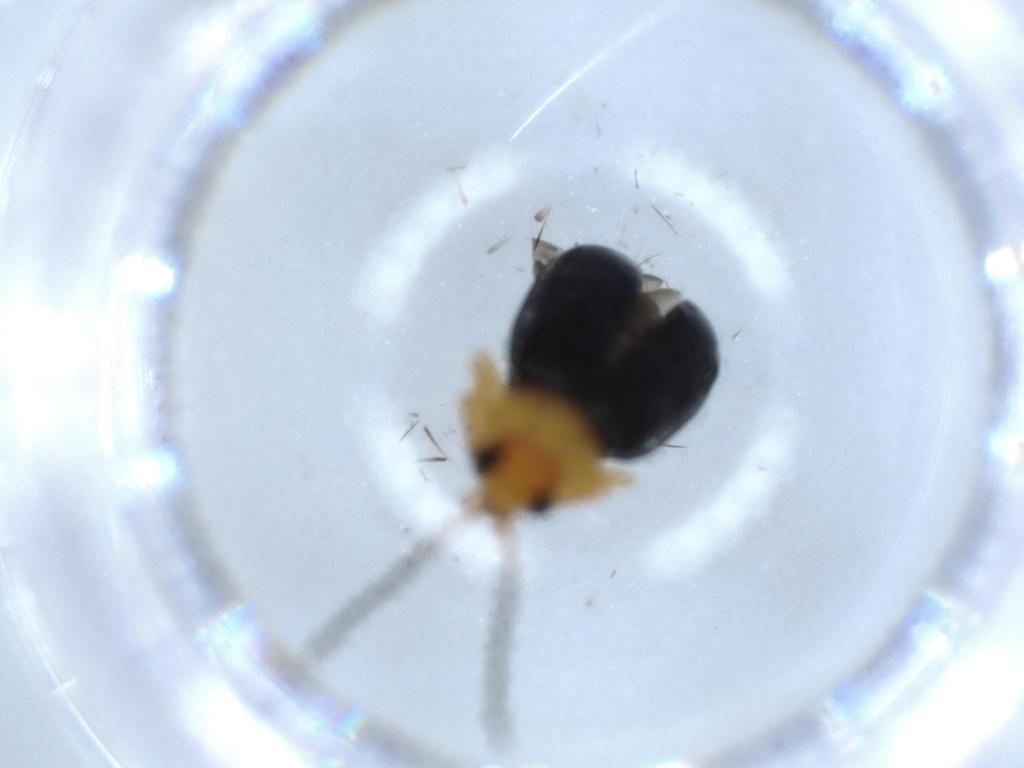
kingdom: Animalia
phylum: Arthropoda
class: Insecta
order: Coleoptera
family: Chrysomelidae
